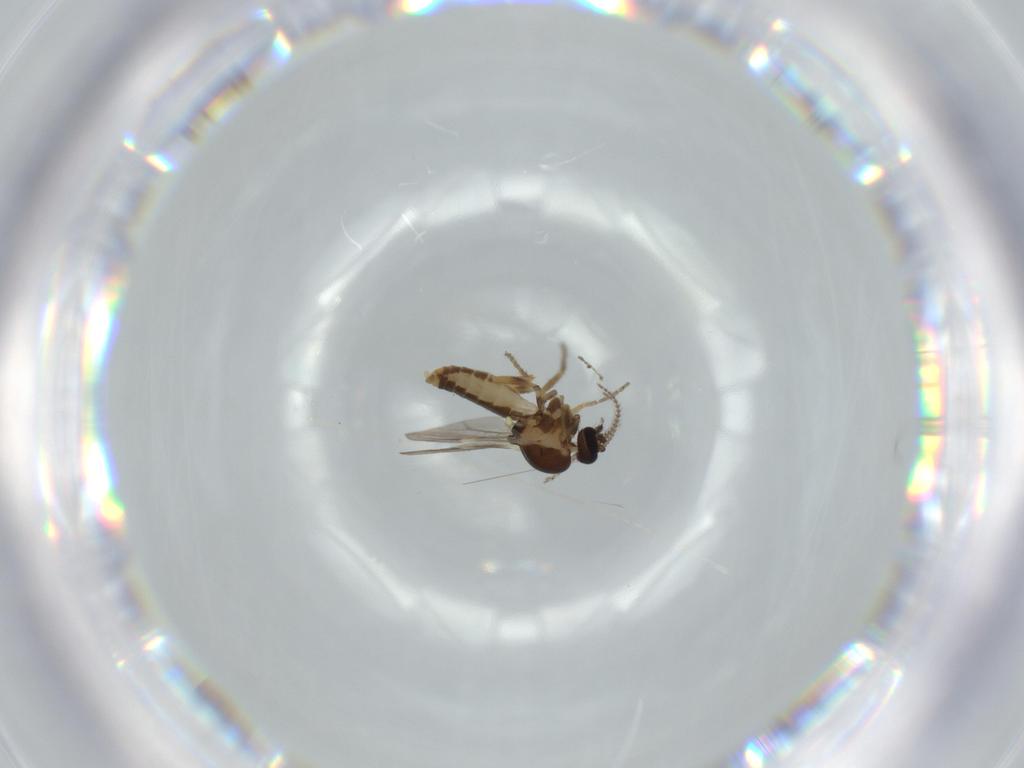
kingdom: Animalia
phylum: Arthropoda
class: Insecta
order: Diptera
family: Ceratopogonidae
